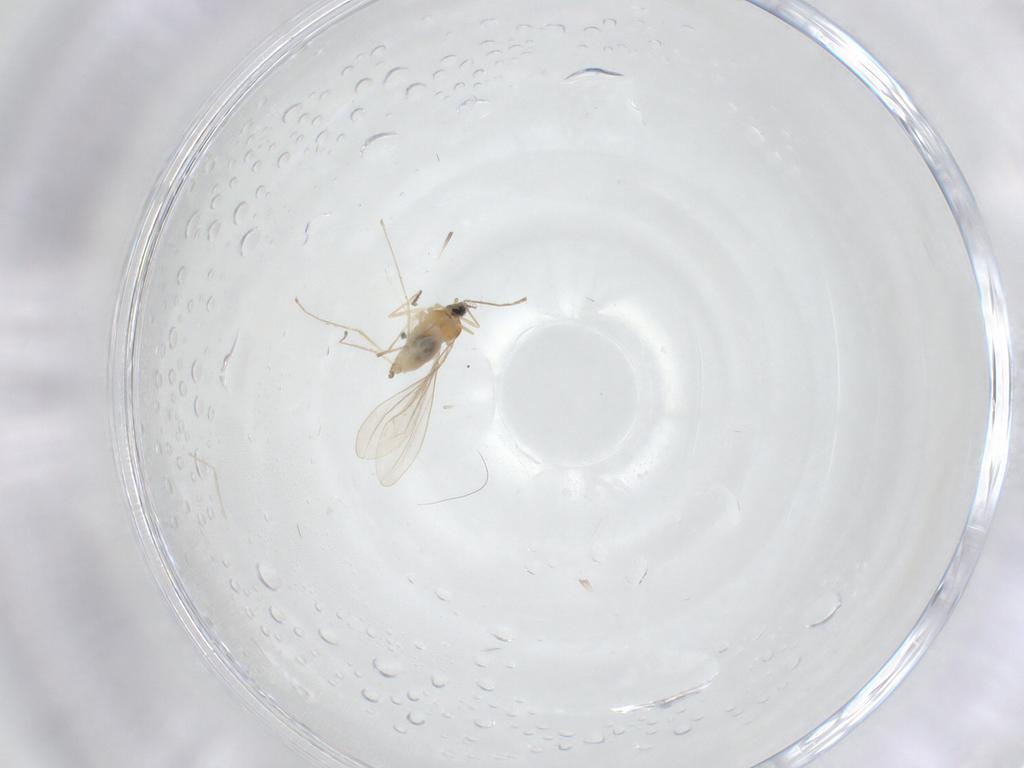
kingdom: Animalia
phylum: Arthropoda
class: Insecta
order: Diptera
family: Cecidomyiidae
